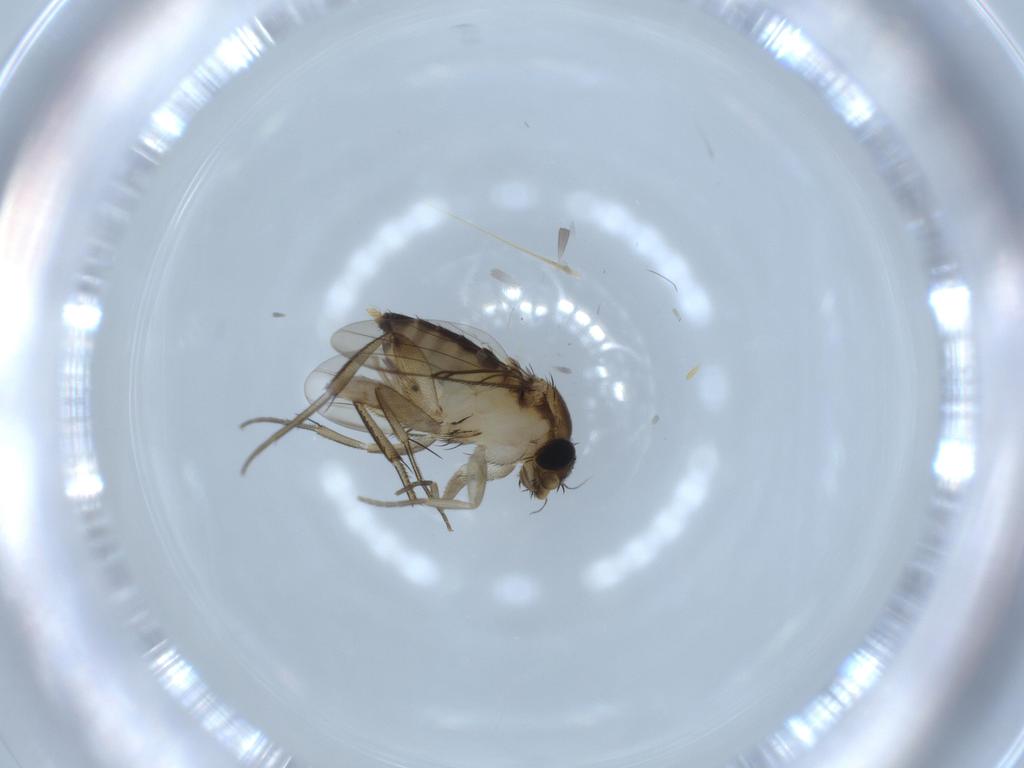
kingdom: Animalia
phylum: Arthropoda
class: Insecta
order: Diptera
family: Phoridae
